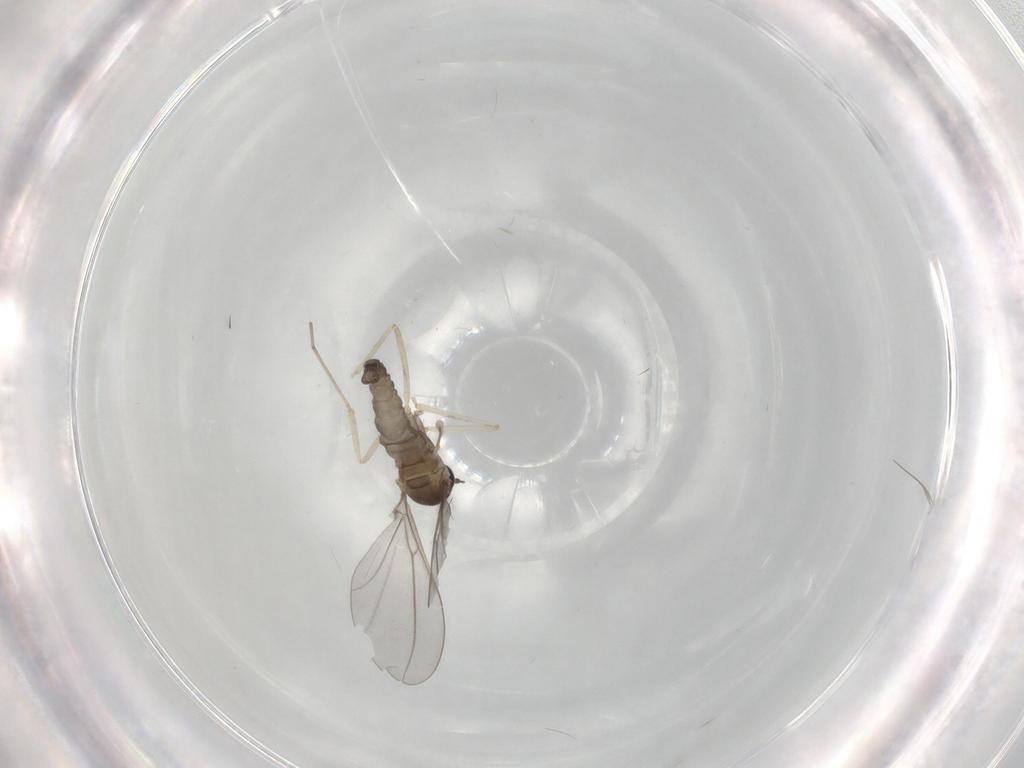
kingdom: Animalia
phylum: Arthropoda
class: Insecta
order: Diptera
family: Cecidomyiidae
